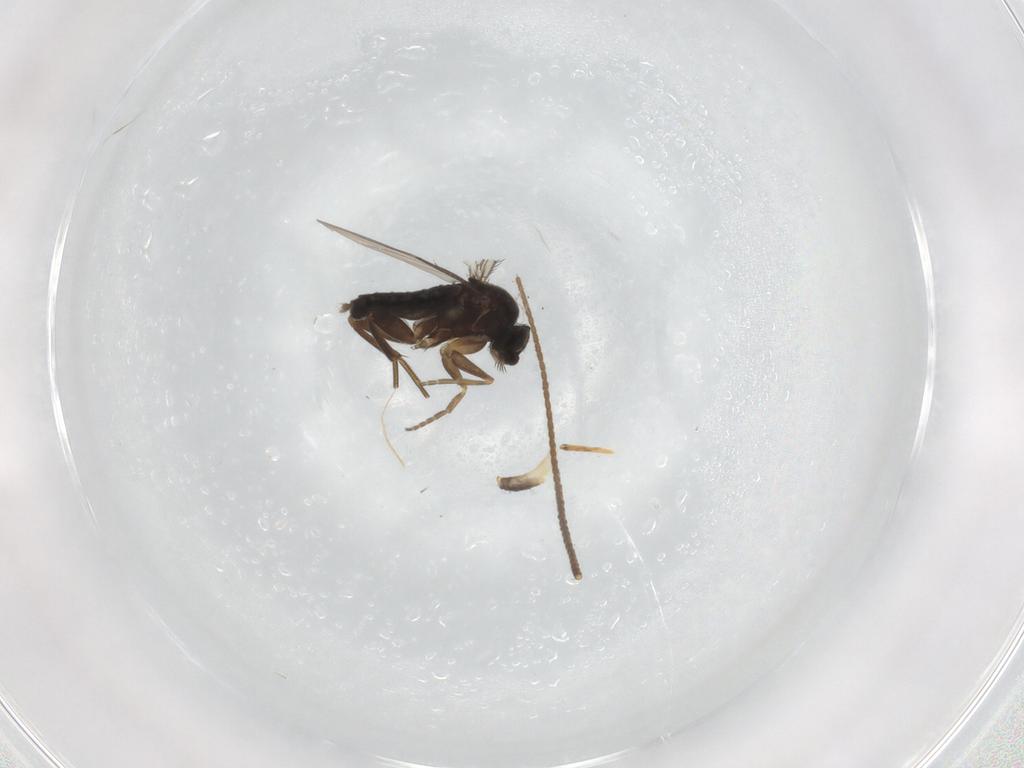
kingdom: Animalia
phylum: Arthropoda
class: Insecta
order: Diptera
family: Phoridae
